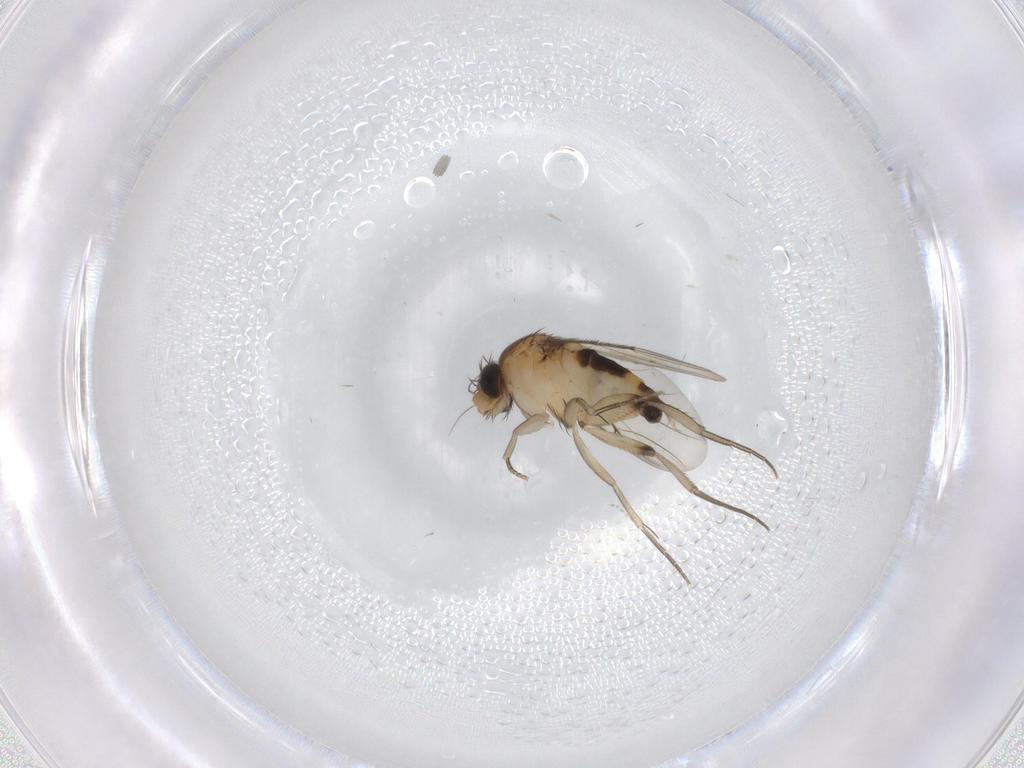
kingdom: Animalia
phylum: Arthropoda
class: Insecta
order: Diptera
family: Phoridae
